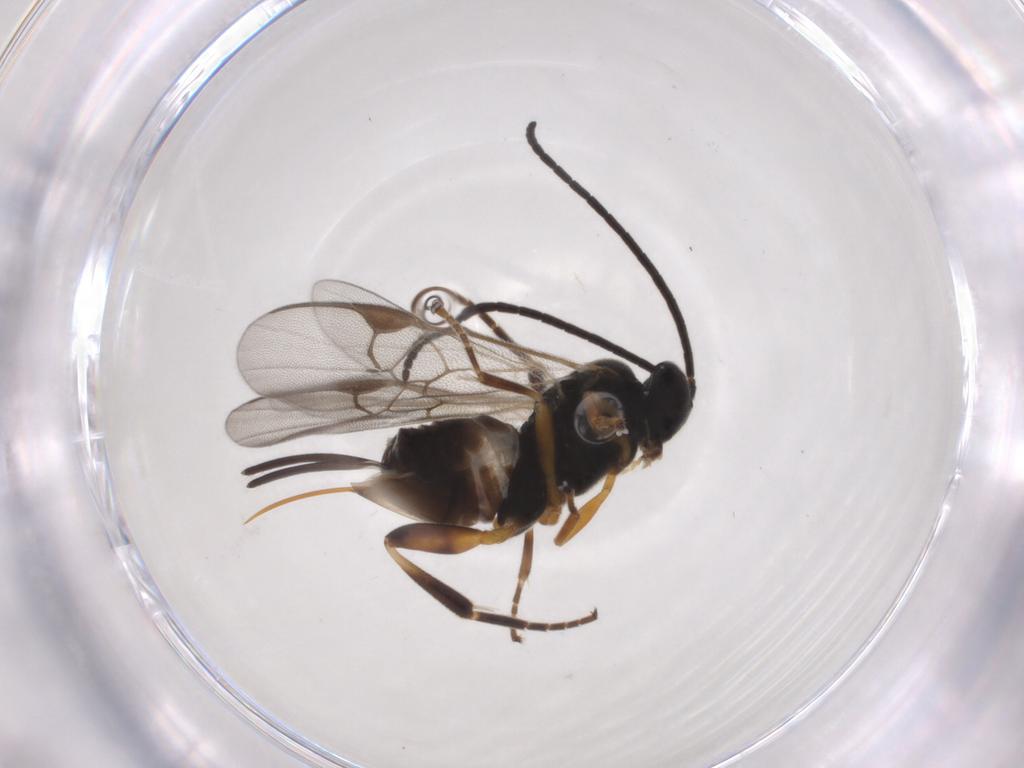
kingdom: Animalia
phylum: Arthropoda
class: Insecta
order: Hymenoptera
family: Braconidae
